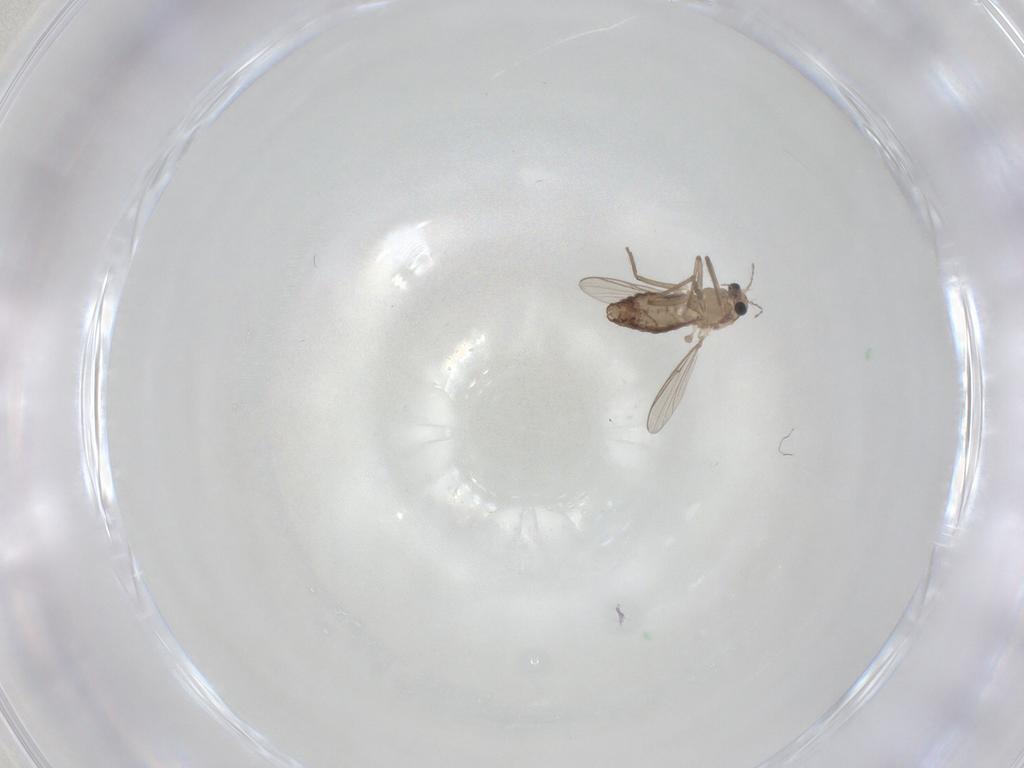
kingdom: Animalia
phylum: Arthropoda
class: Insecta
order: Diptera
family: Chironomidae
